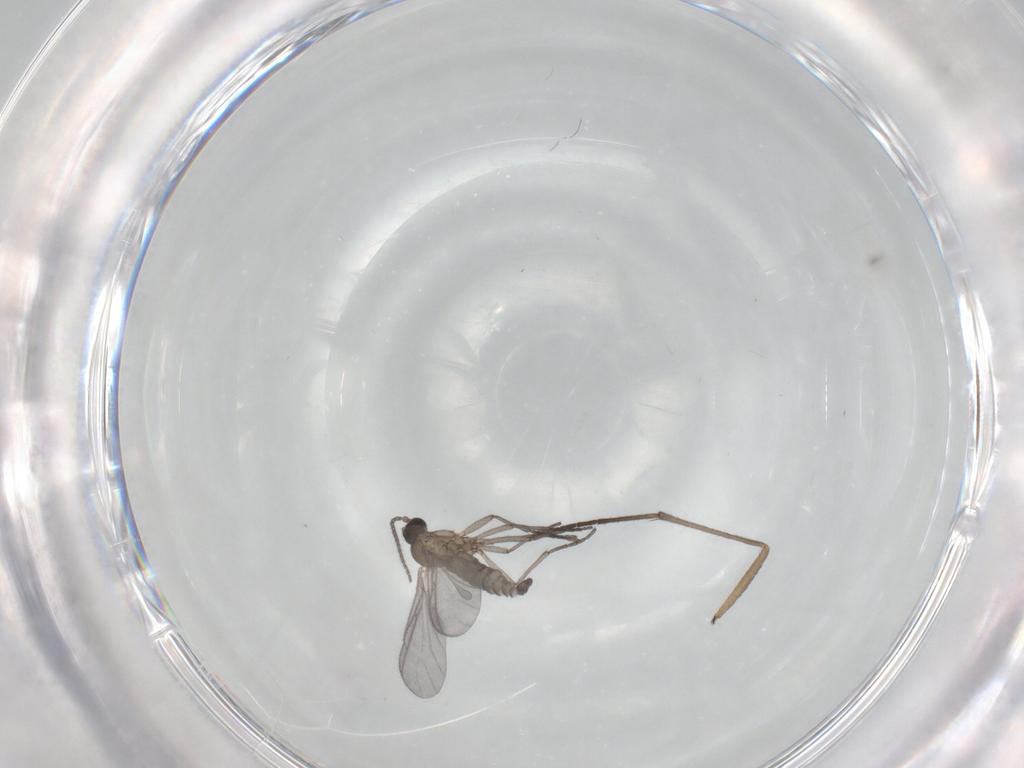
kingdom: Animalia
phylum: Arthropoda
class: Insecta
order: Diptera
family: Sciaridae
